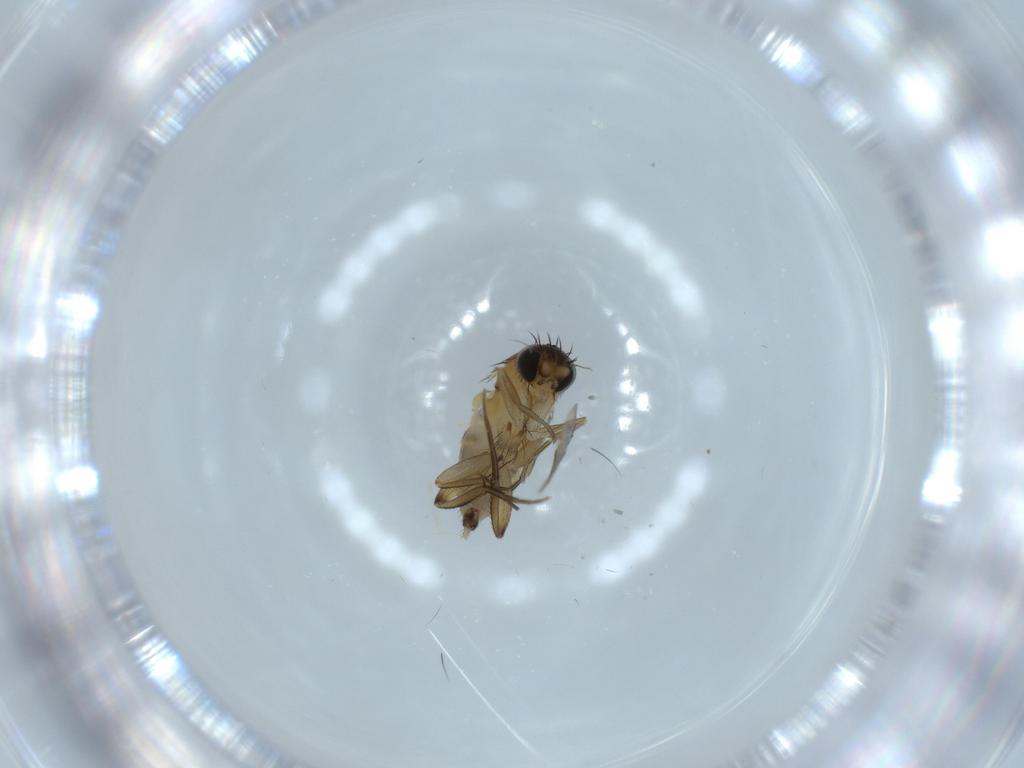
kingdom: Animalia
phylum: Arthropoda
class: Insecta
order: Diptera
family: Phoridae
